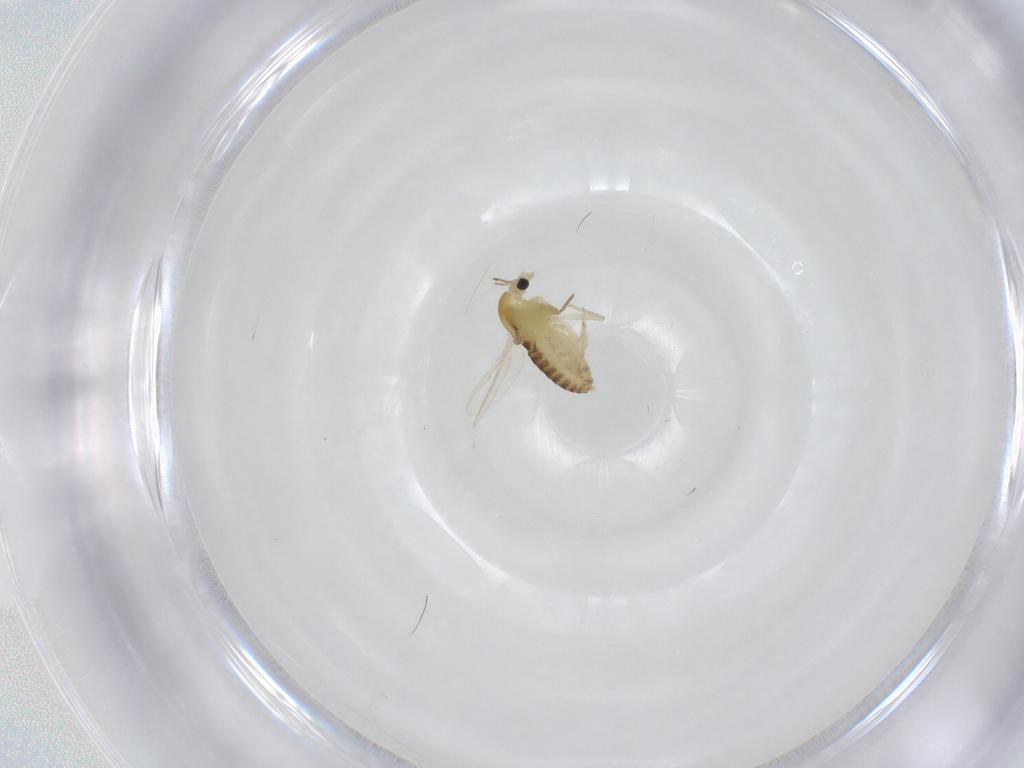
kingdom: Animalia
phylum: Arthropoda
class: Insecta
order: Diptera
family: Chironomidae
